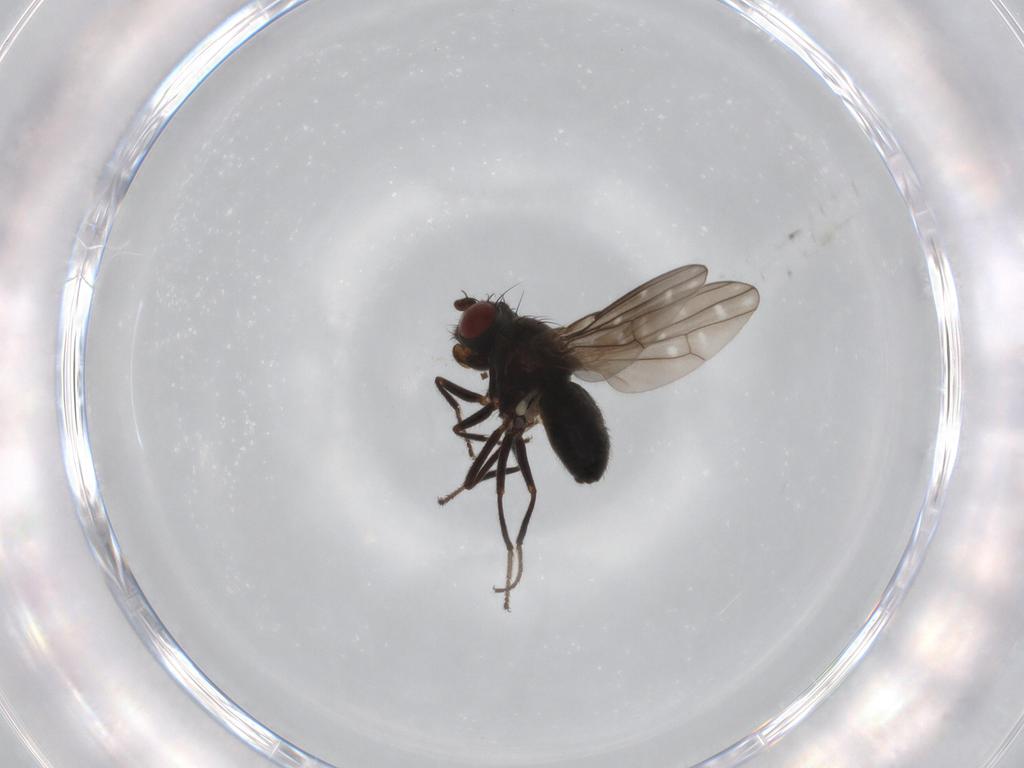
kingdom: Animalia
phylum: Arthropoda
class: Insecta
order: Diptera
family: Ephydridae
